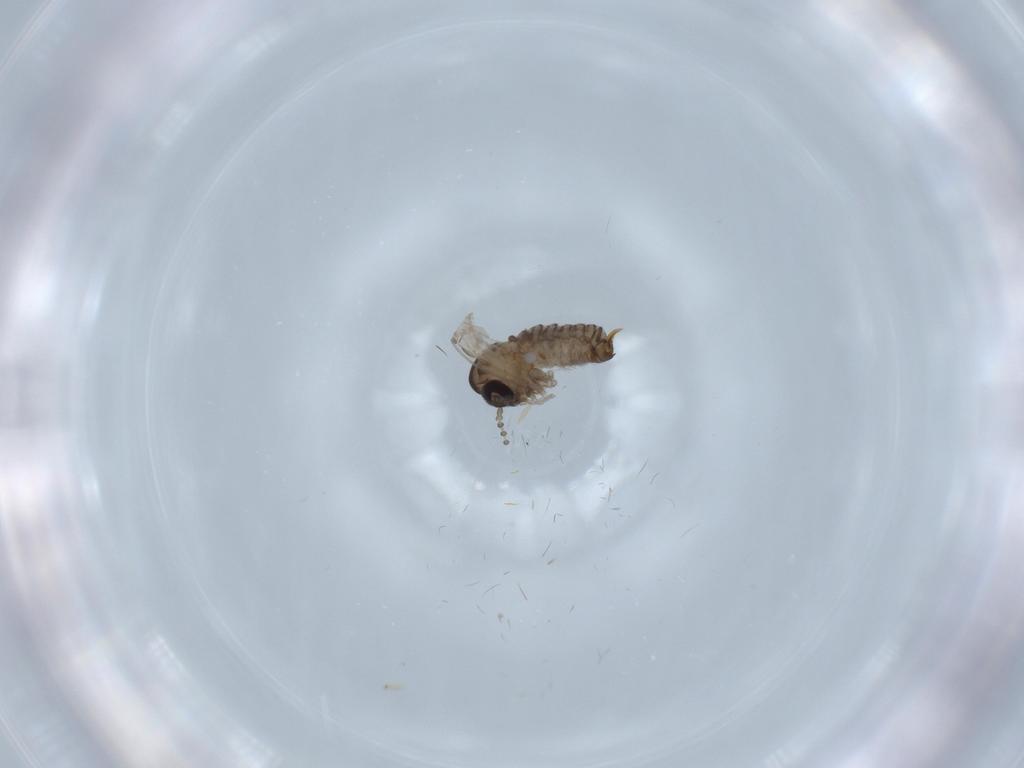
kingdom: Animalia
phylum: Arthropoda
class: Insecta
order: Diptera
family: Psychodidae
